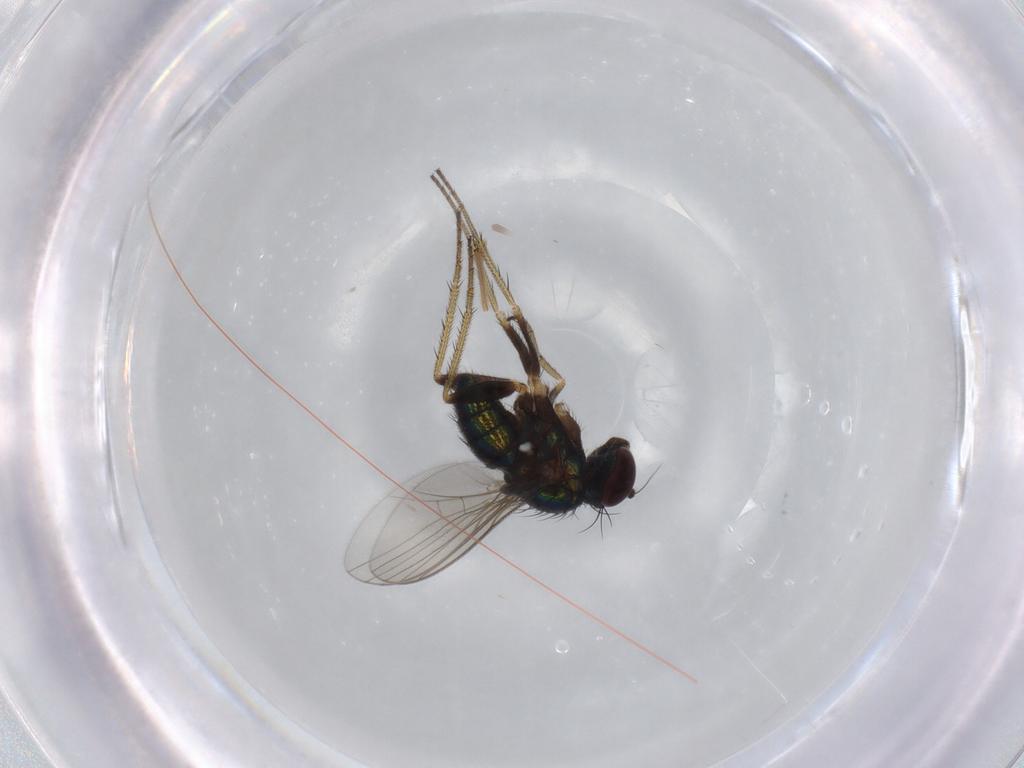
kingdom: Animalia
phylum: Arthropoda
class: Insecta
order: Diptera
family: Dolichopodidae
